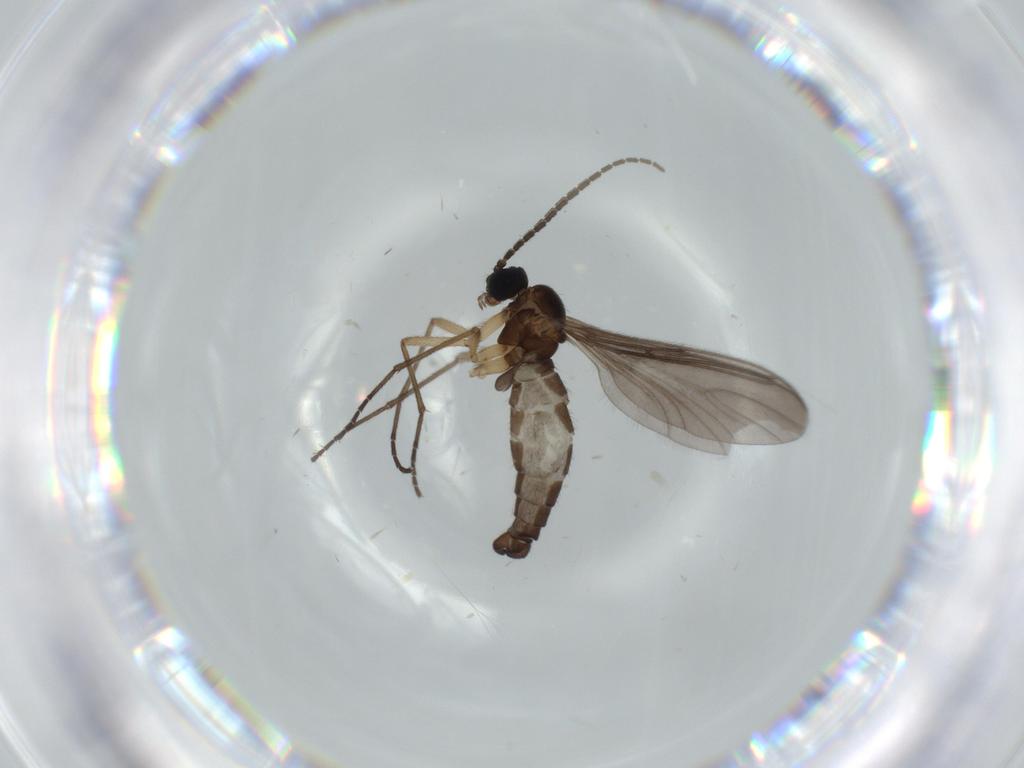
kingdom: Animalia
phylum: Arthropoda
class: Insecta
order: Diptera
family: Sciaridae
